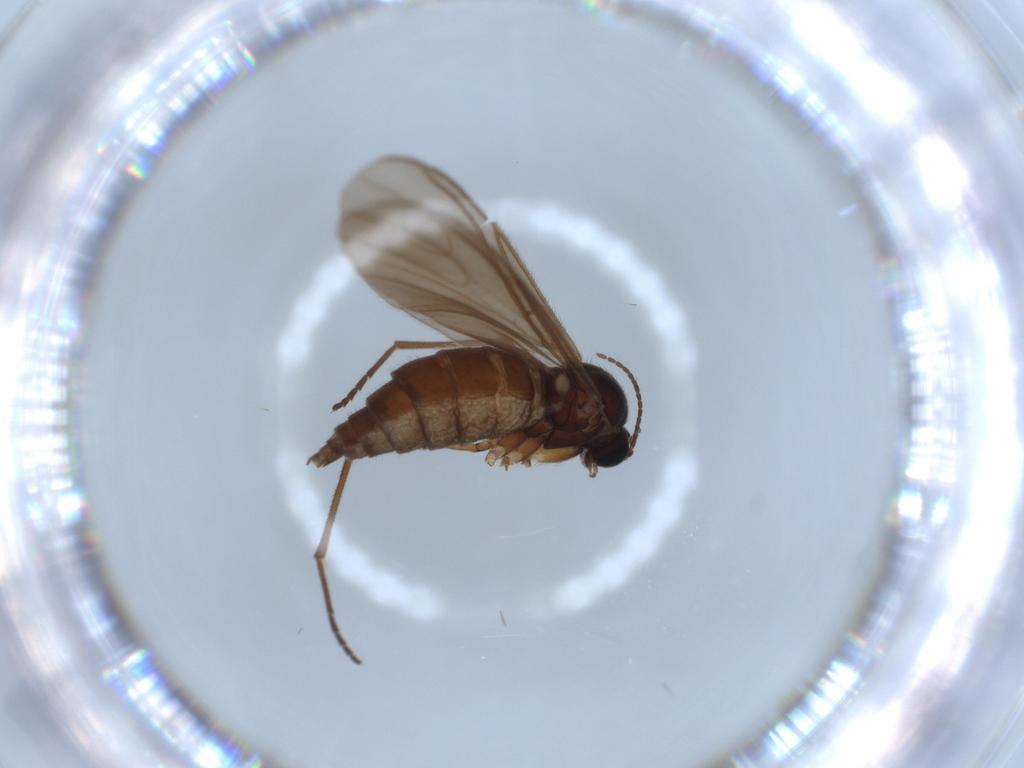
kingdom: Animalia
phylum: Arthropoda
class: Insecta
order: Diptera
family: Sciaridae
